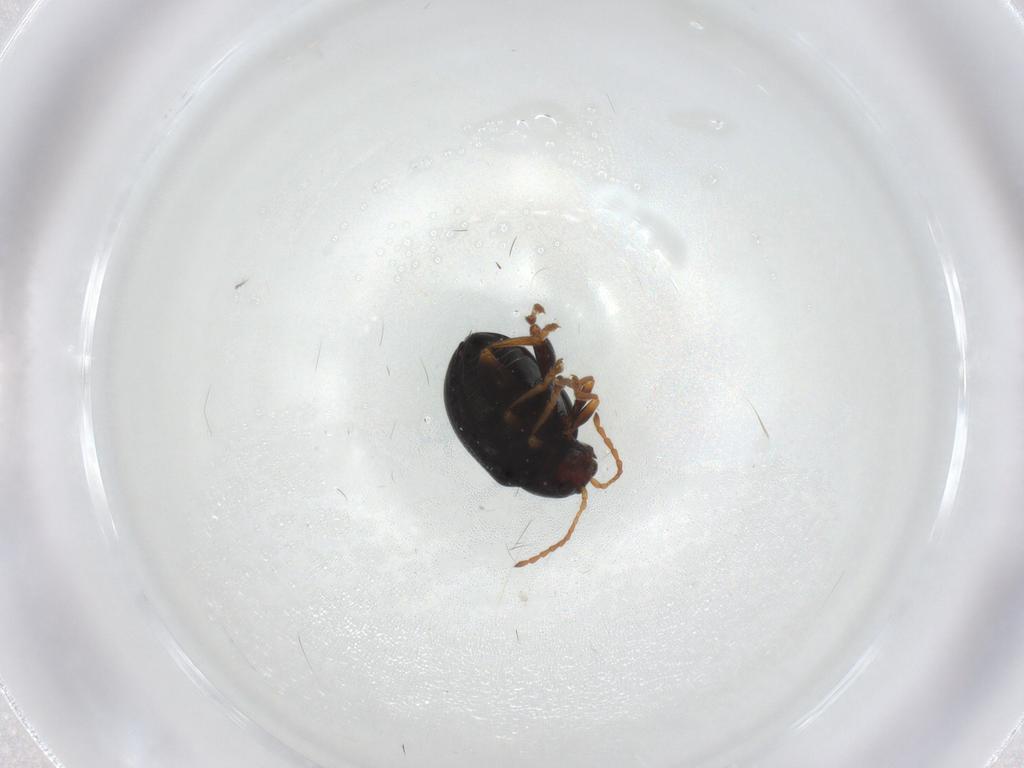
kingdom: Animalia
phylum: Arthropoda
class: Insecta
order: Coleoptera
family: Chrysomelidae
